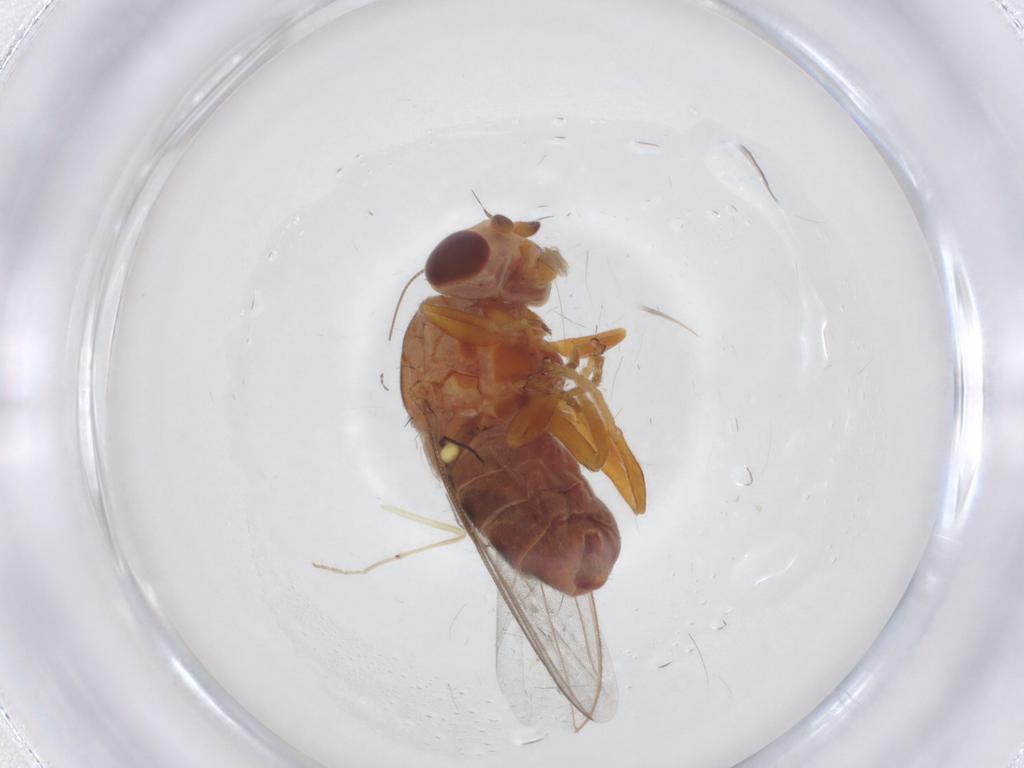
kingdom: Animalia
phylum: Arthropoda
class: Insecta
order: Diptera
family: Chloropidae
